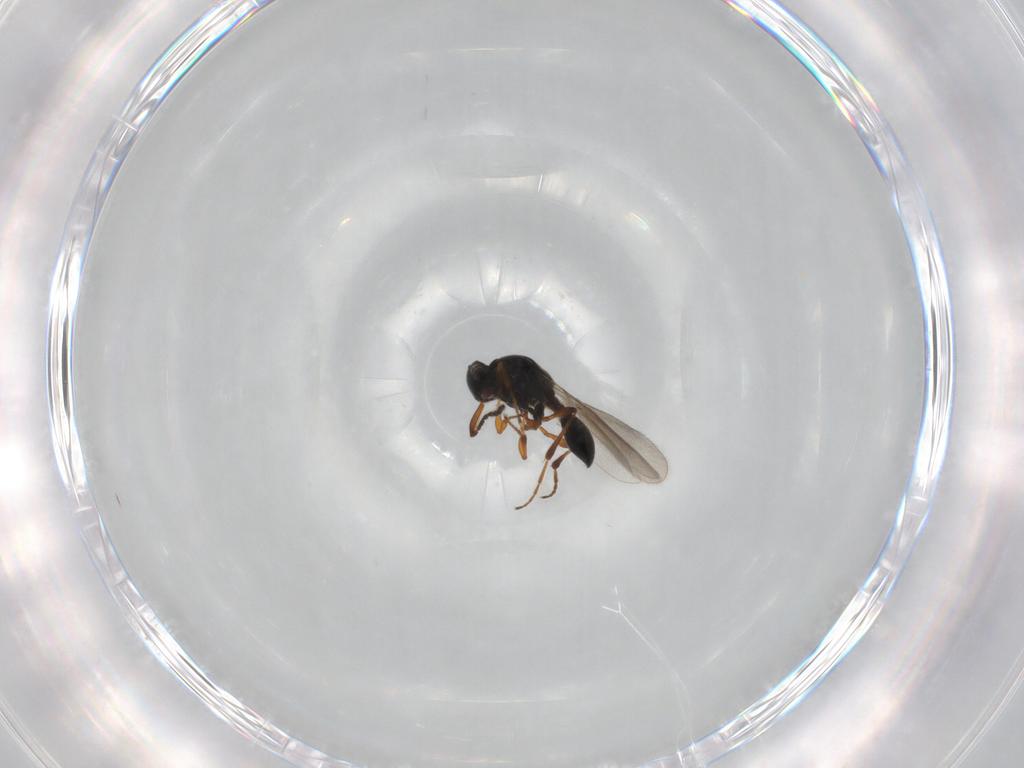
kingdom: Animalia
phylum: Arthropoda
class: Insecta
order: Hymenoptera
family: Platygastridae
